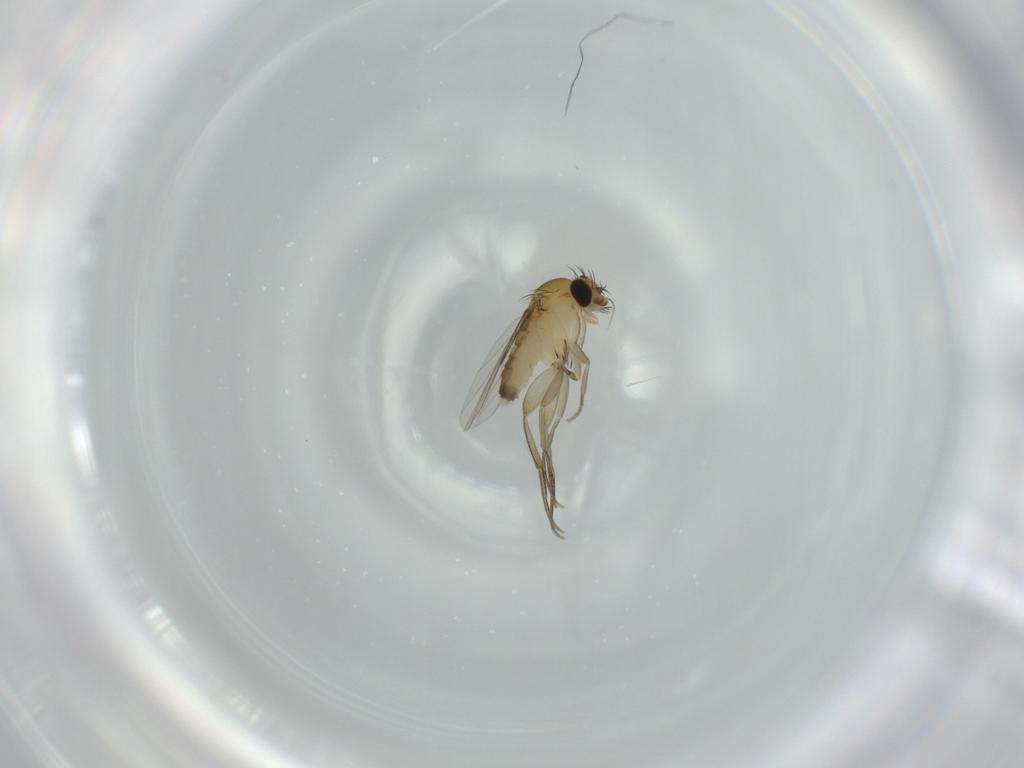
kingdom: Animalia
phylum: Arthropoda
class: Insecta
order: Diptera
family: Phoridae
